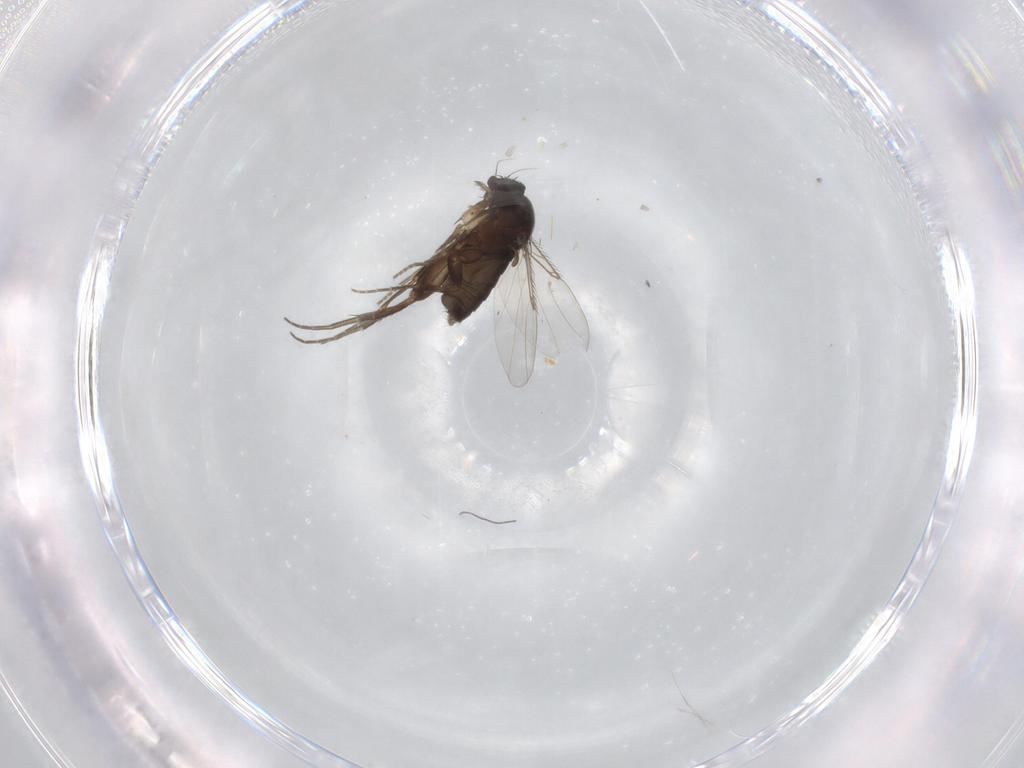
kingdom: Animalia
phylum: Arthropoda
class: Insecta
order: Diptera
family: Phoridae
